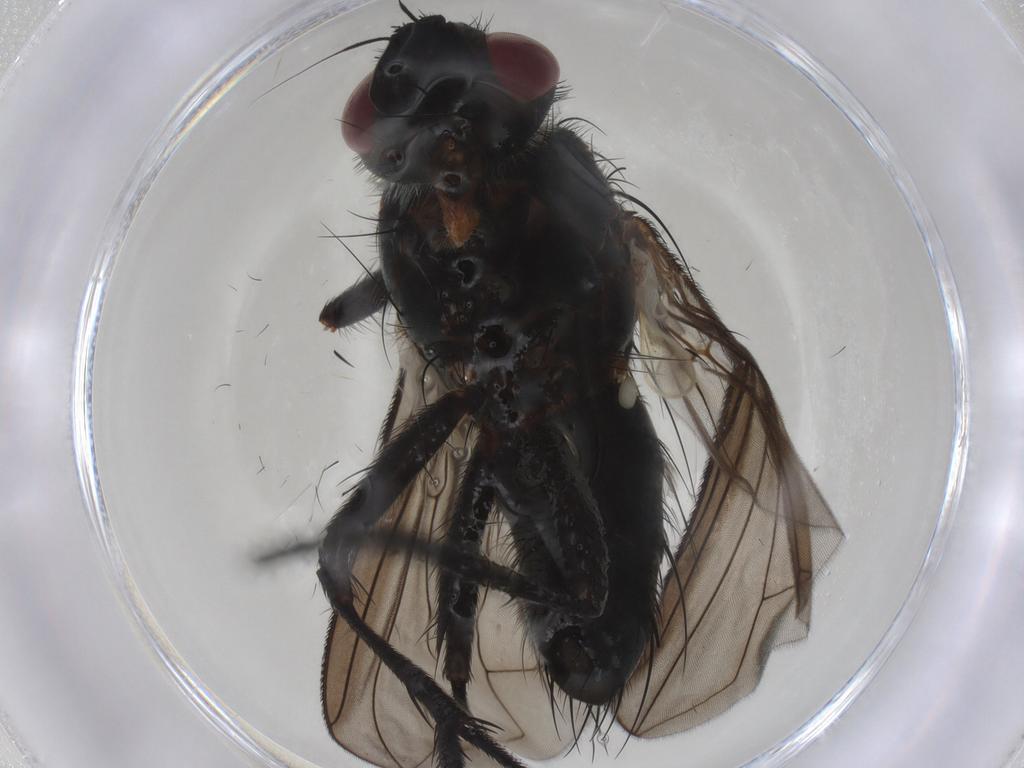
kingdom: Animalia
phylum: Arthropoda
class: Insecta
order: Diptera
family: Tachinidae
